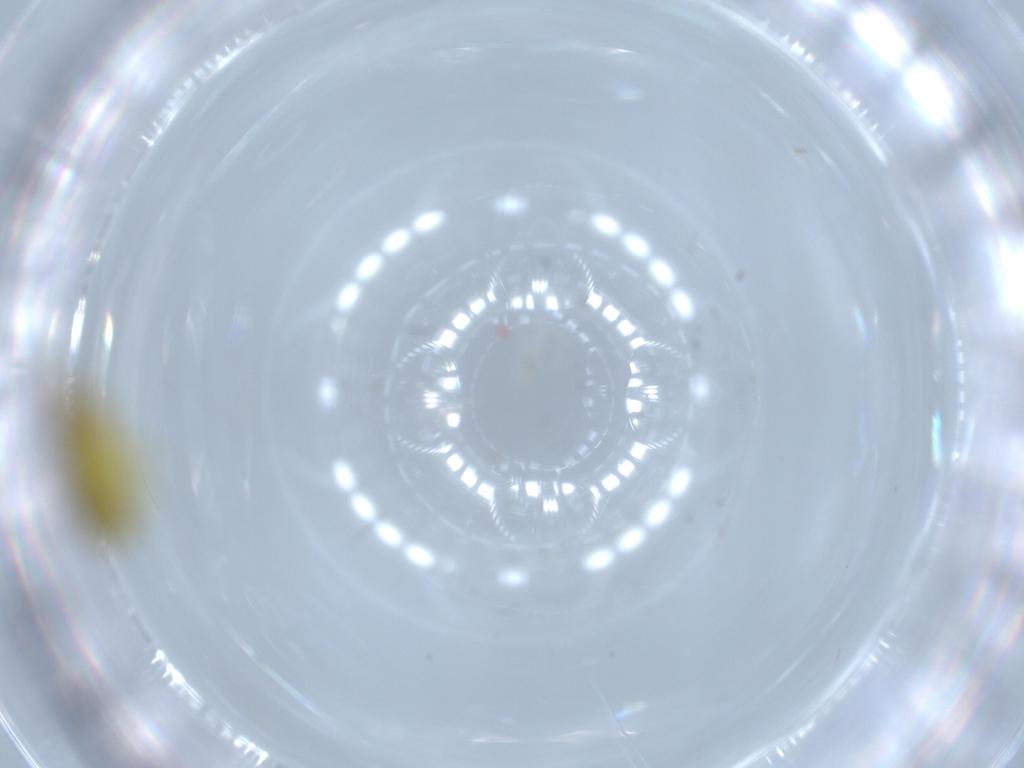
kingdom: Animalia
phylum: Arthropoda
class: Insecta
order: Hemiptera
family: Cicadellidae
